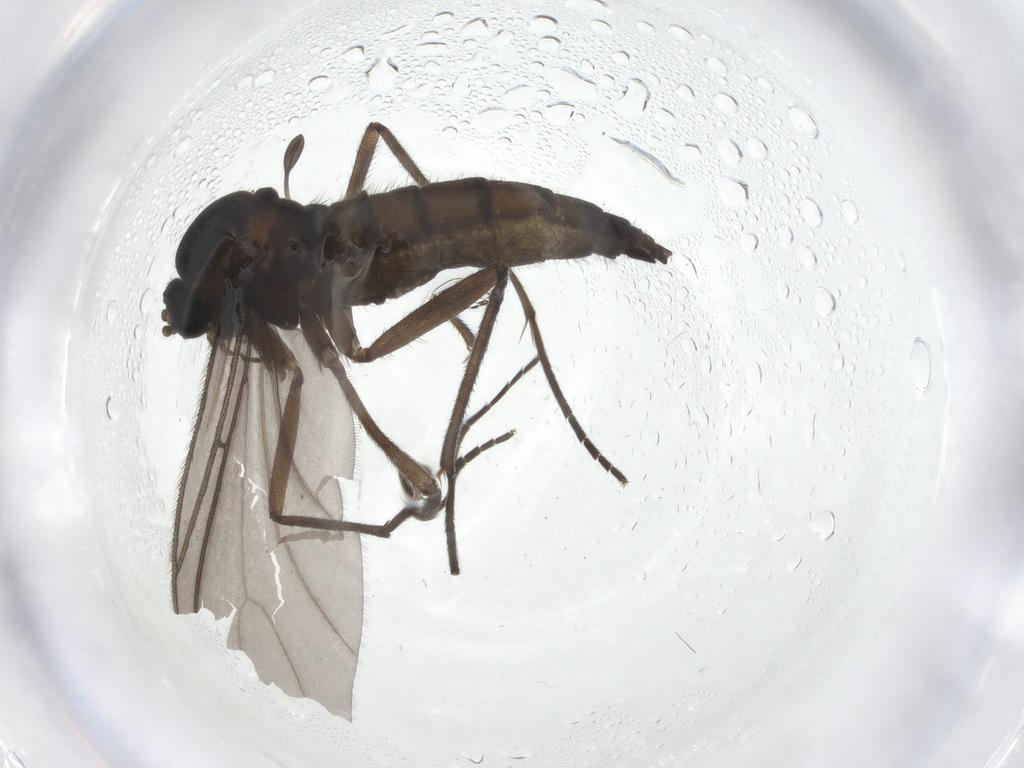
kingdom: Animalia
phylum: Arthropoda
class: Insecta
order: Diptera
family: Sciaridae
